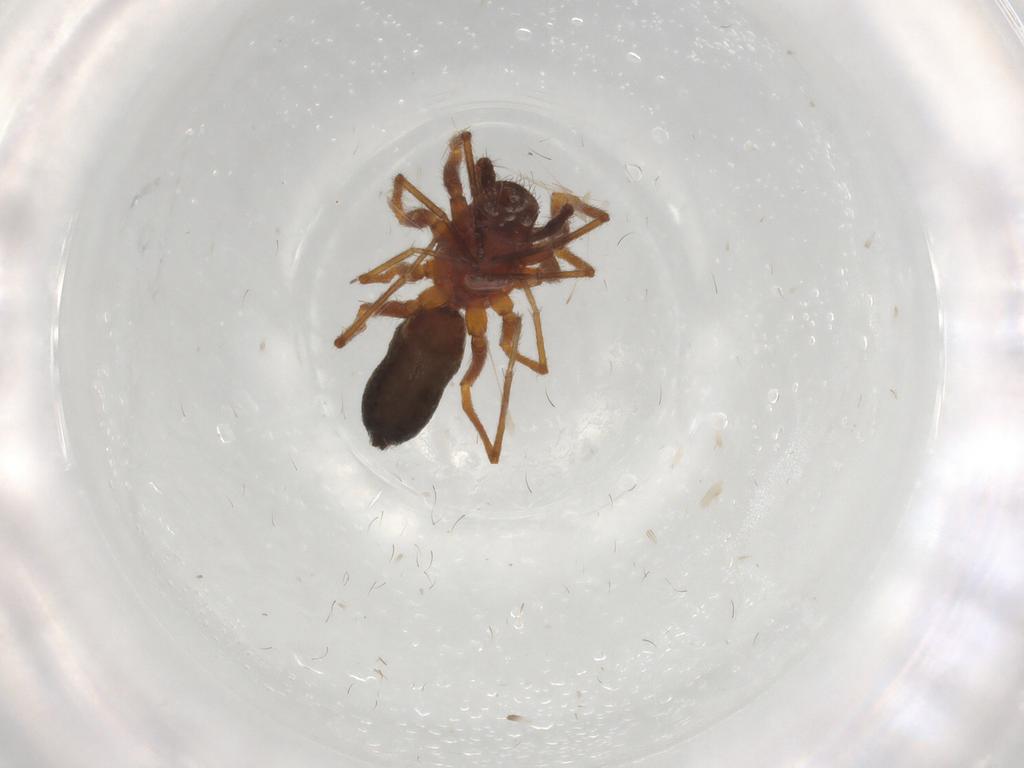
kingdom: Animalia
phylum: Arthropoda
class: Arachnida
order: Araneae
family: Gnaphosidae
